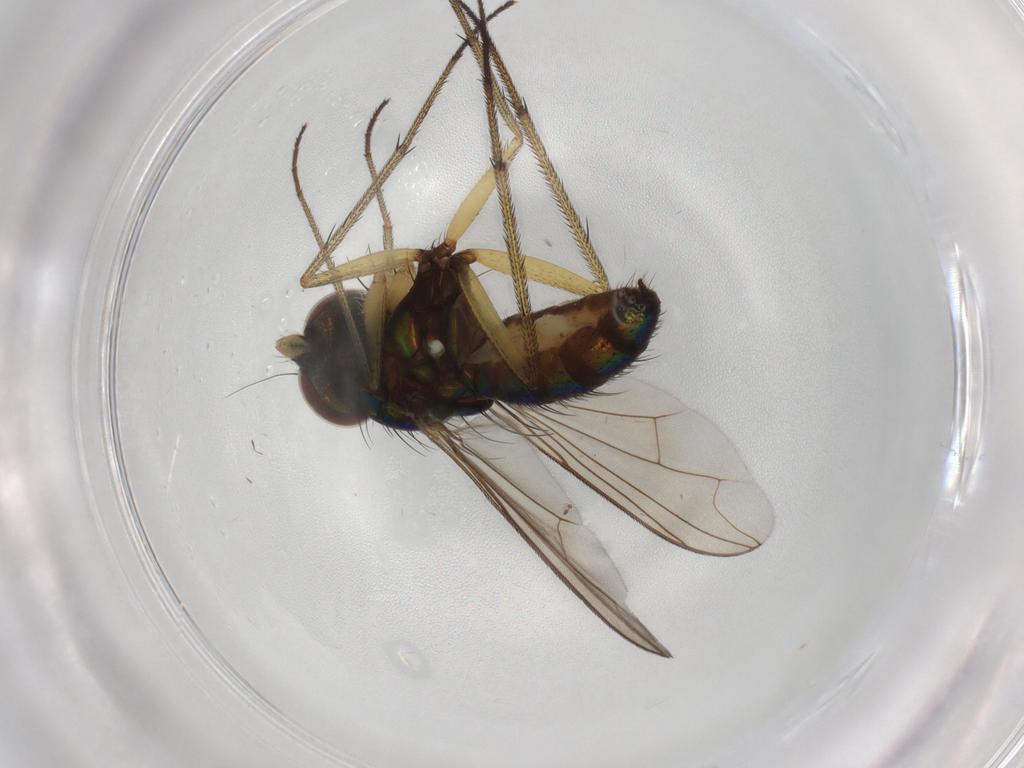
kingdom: Animalia
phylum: Arthropoda
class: Insecta
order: Diptera
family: Dolichopodidae
